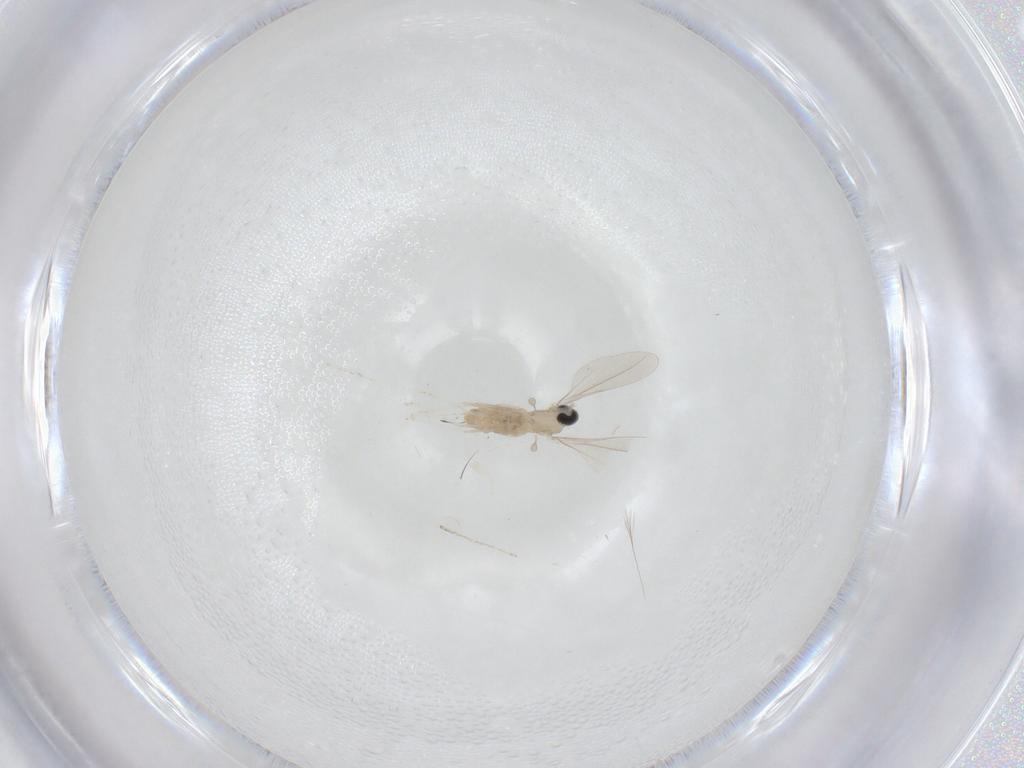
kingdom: Animalia
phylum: Arthropoda
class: Insecta
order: Diptera
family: Cecidomyiidae
